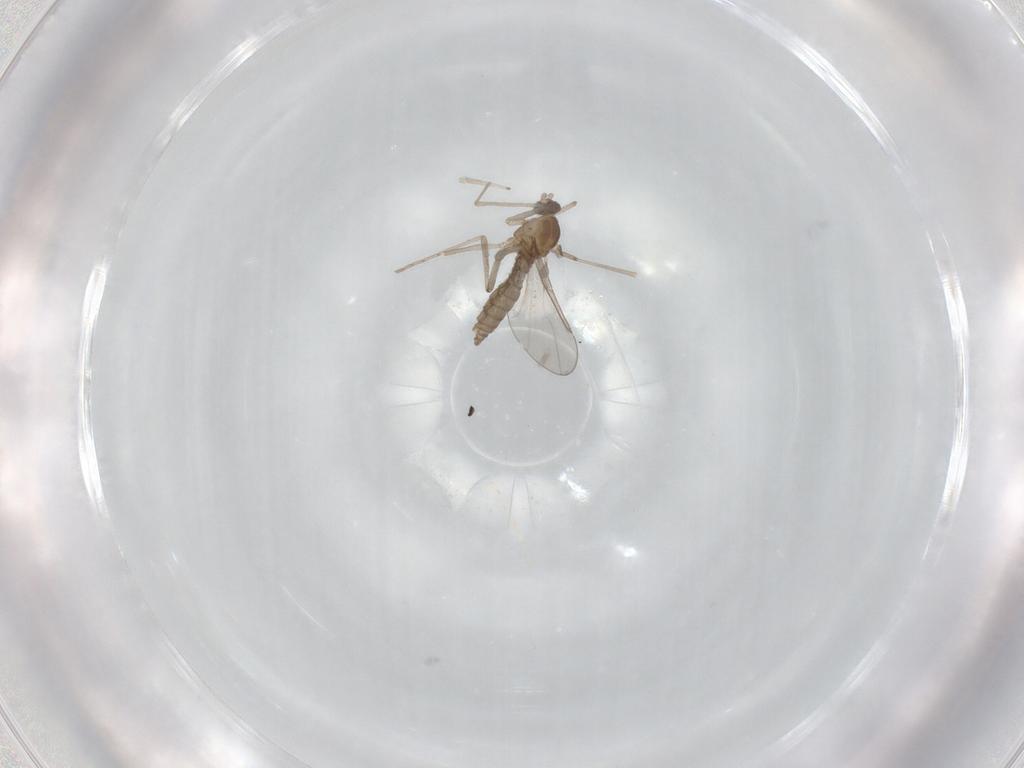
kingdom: Animalia
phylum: Arthropoda
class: Insecta
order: Diptera
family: Cecidomyiidae
